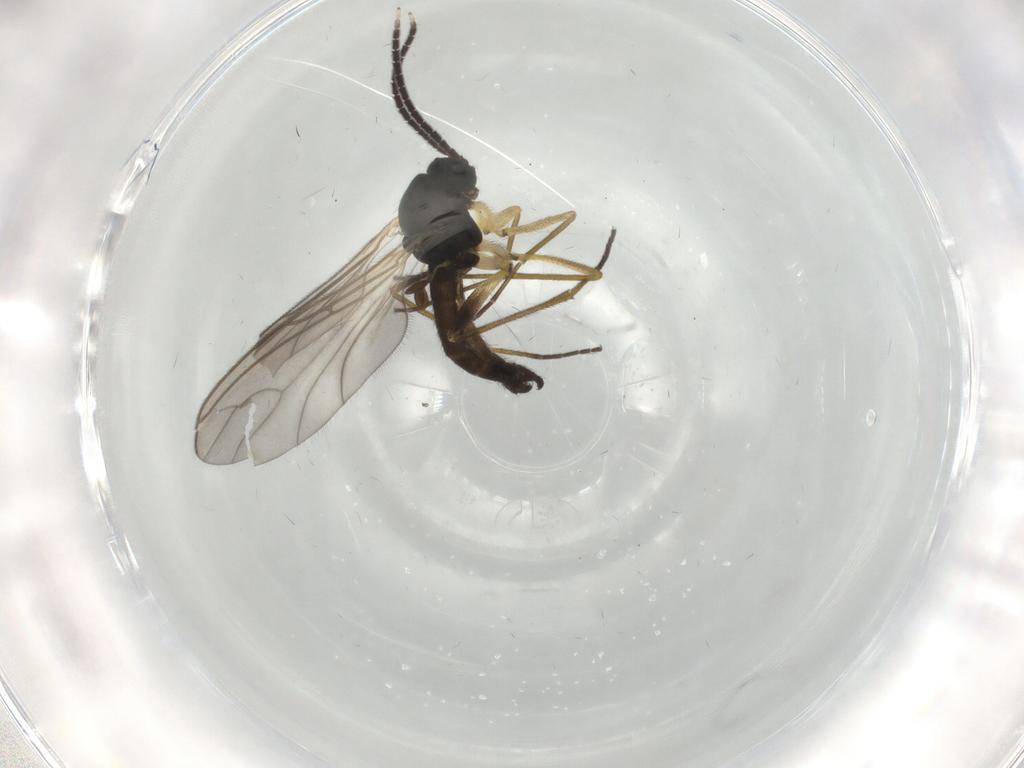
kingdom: Animalia
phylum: Arthropoda
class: Insecta
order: Diptera
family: Sciaridae
